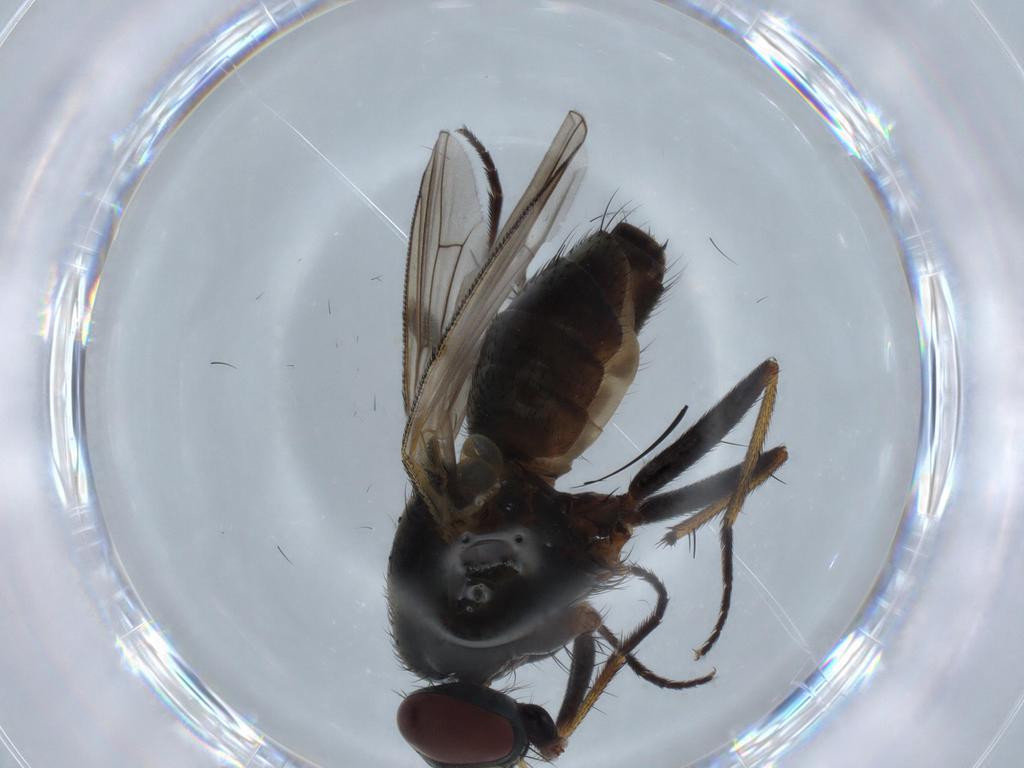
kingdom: Animalia
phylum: Arthropoda
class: Insecta
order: Diptera
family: Muscidae
